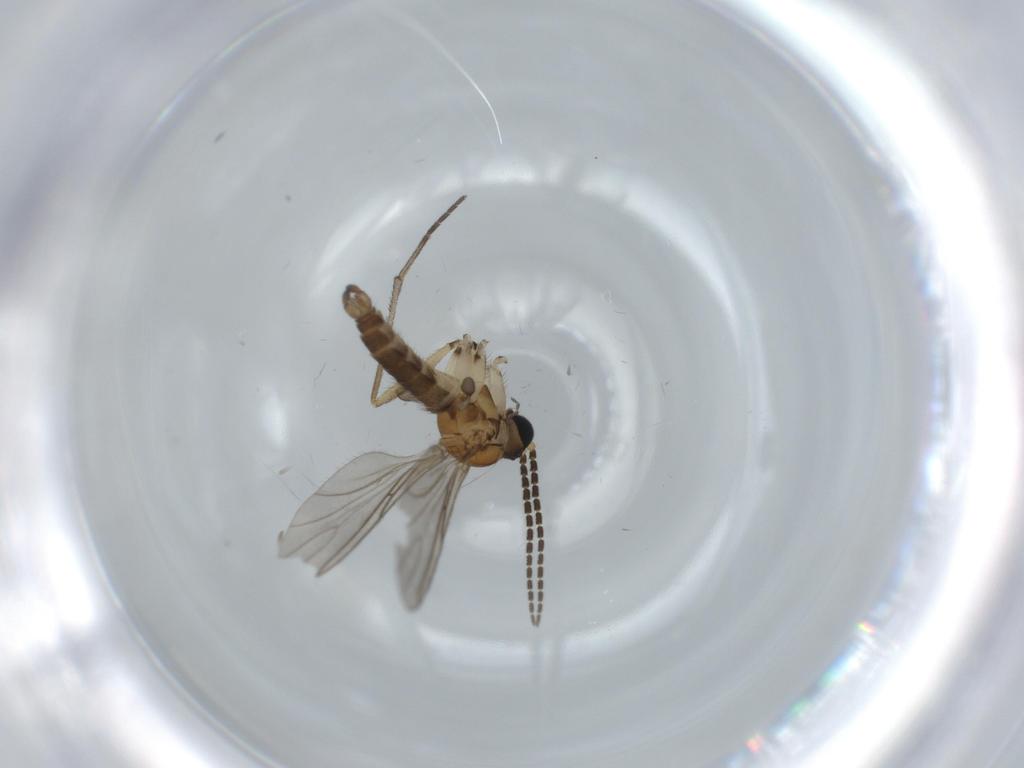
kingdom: Animalia
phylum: Arthropoda
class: Insecta
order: Diptera
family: Sciaridae
